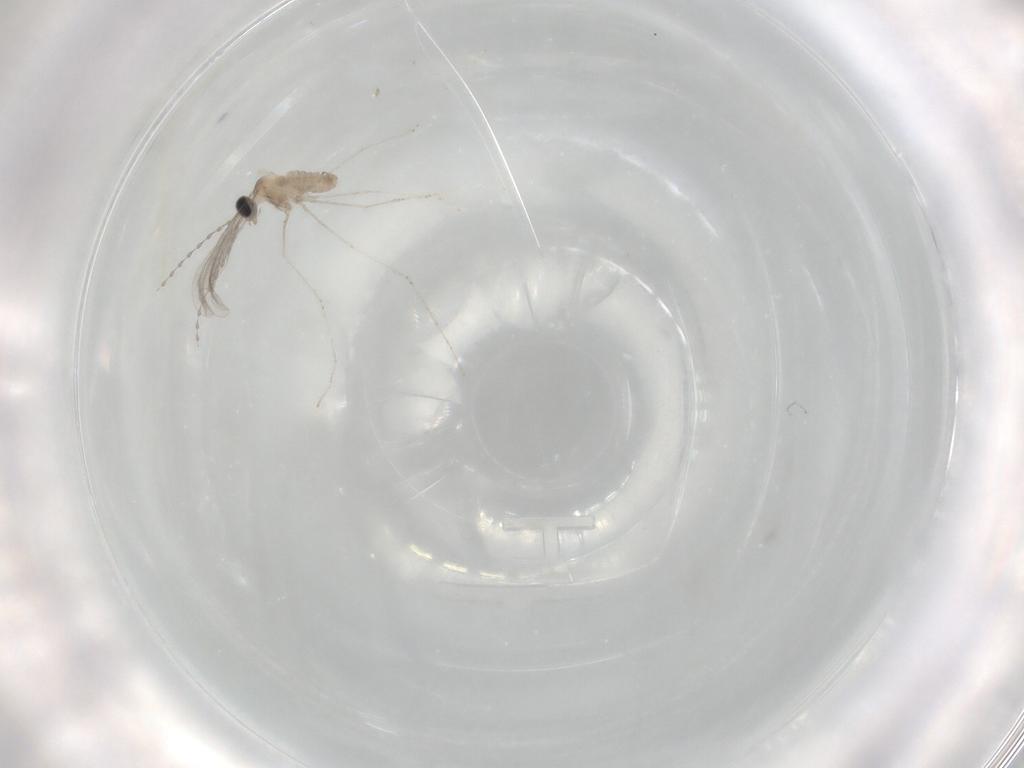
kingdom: Animalia
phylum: Arthropoda
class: Insecta
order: Diptera
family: Cecidomyiidae
